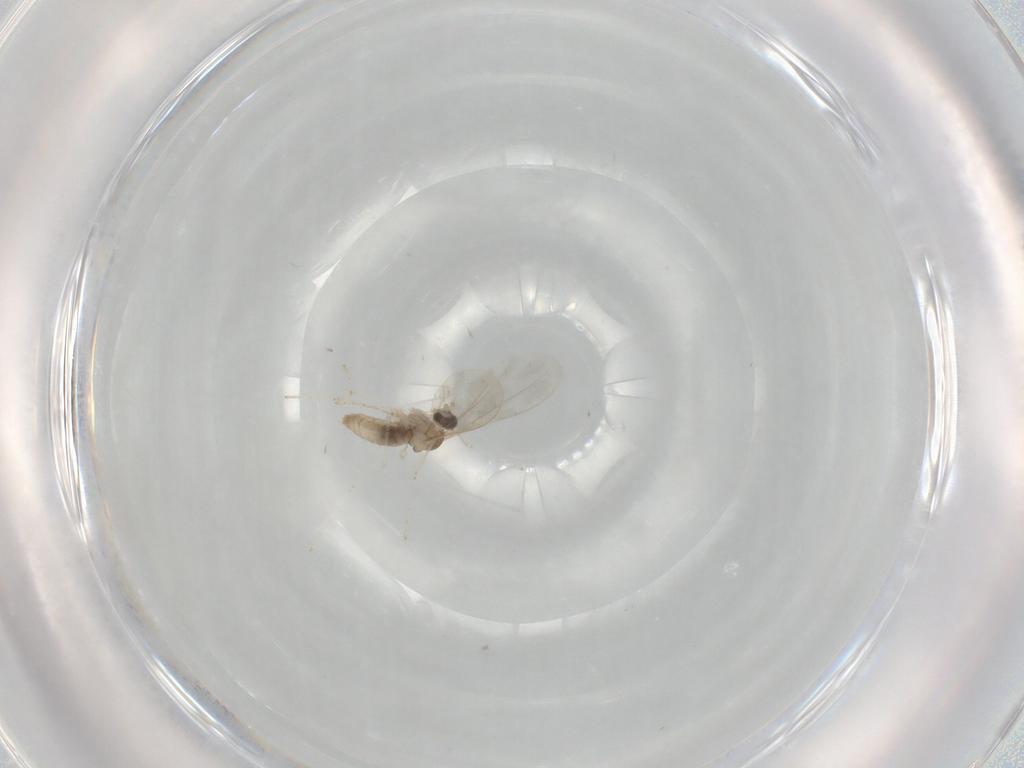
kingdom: Animalia
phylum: Arthropoda
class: Insecta
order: Diptera
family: Cecidomyiidae
